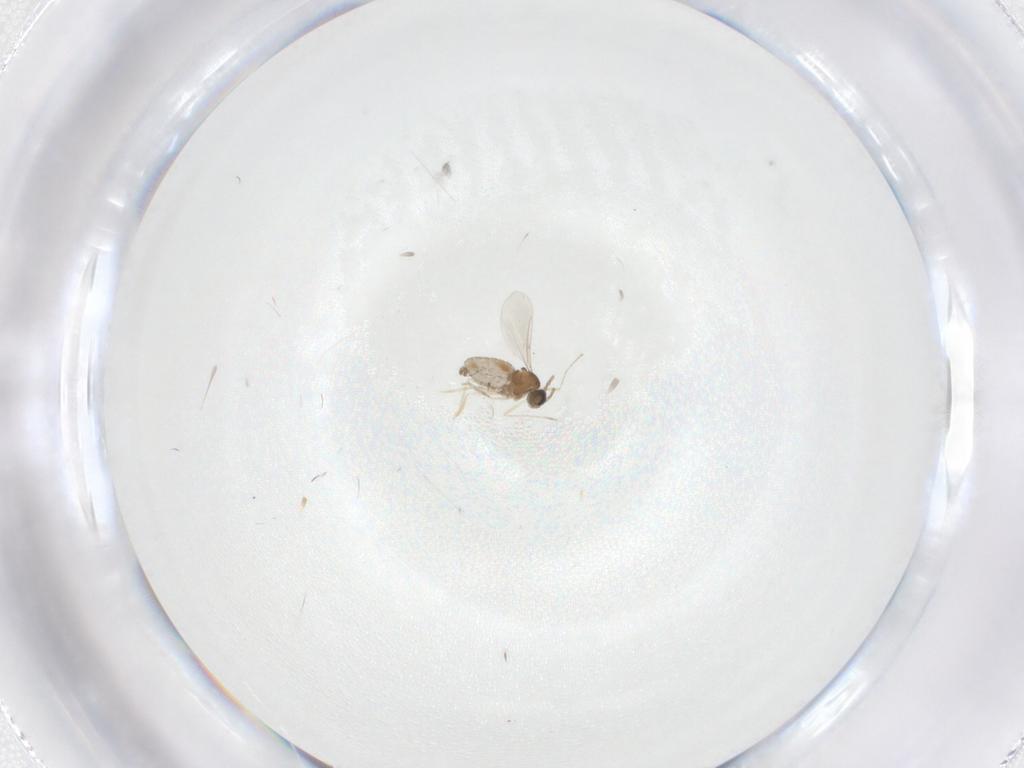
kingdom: Animalia
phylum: Arthropoda
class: Insecta
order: Diptera
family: Cecidomyiidae
